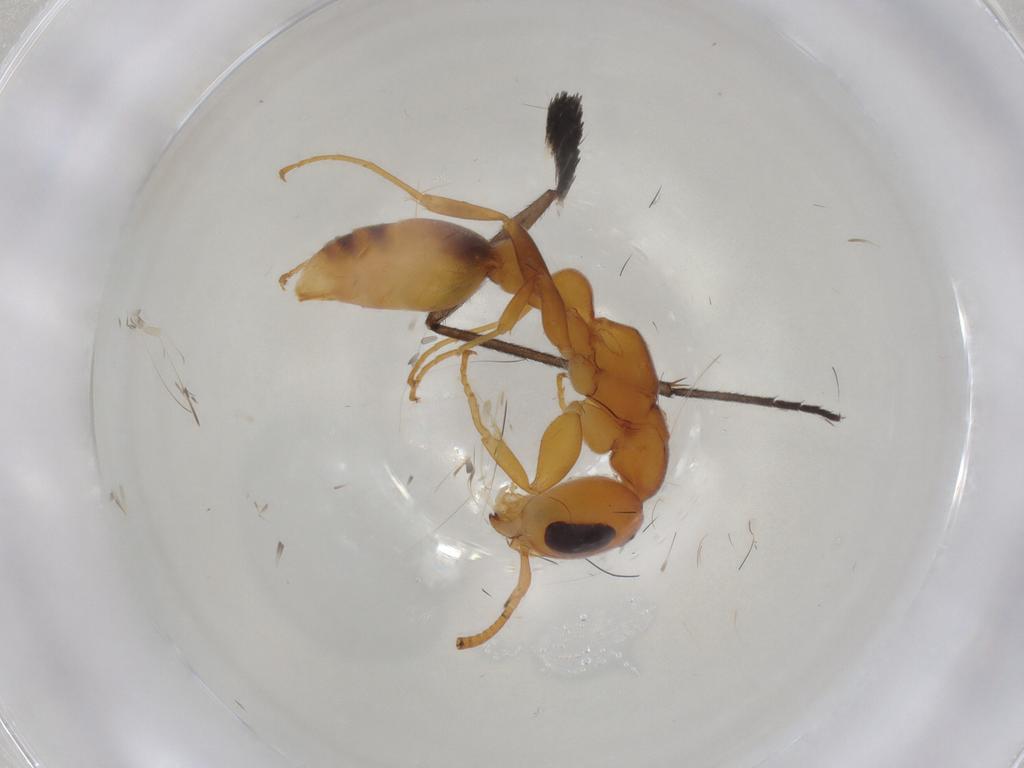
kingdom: Animalia
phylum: Arthropoda
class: Insecta
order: Hymenoptera
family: Formicidae
